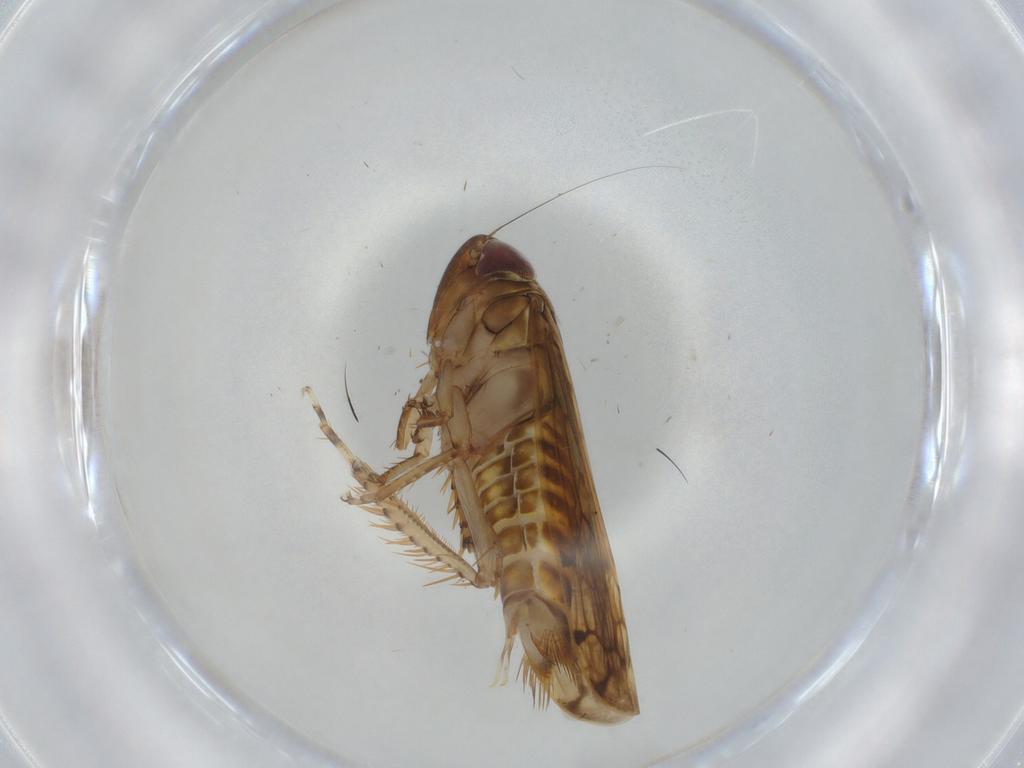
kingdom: Animalia
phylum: Arthropoda
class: Insecta
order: Hemiptera
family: Cicadellidae
